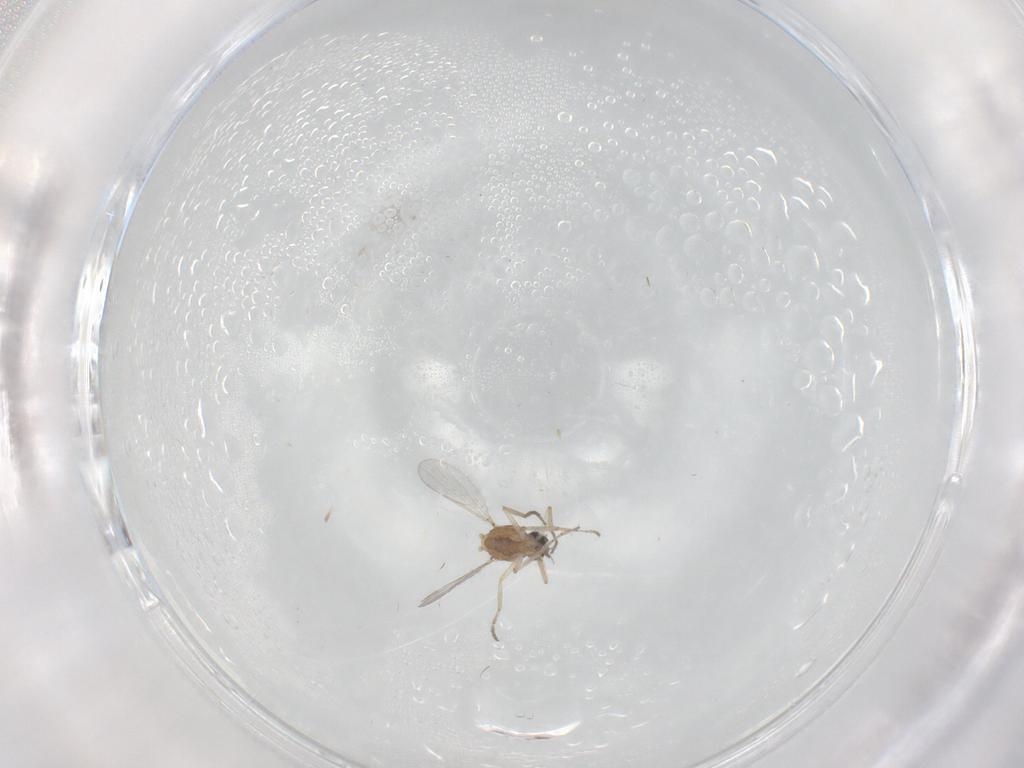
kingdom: Animalia
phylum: Arthropoda
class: Insecta
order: Diptera
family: Ceratopogonidae
